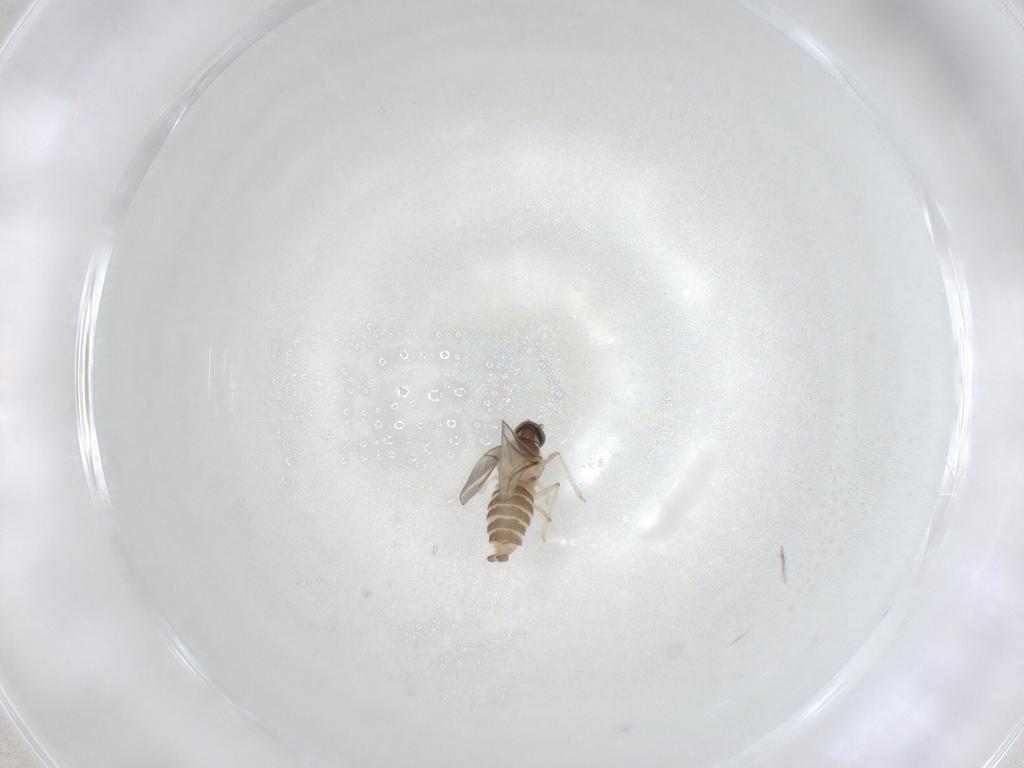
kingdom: Animalia
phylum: Arthropoda
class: Insecta
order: Diptera
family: Cecidomyiidae
